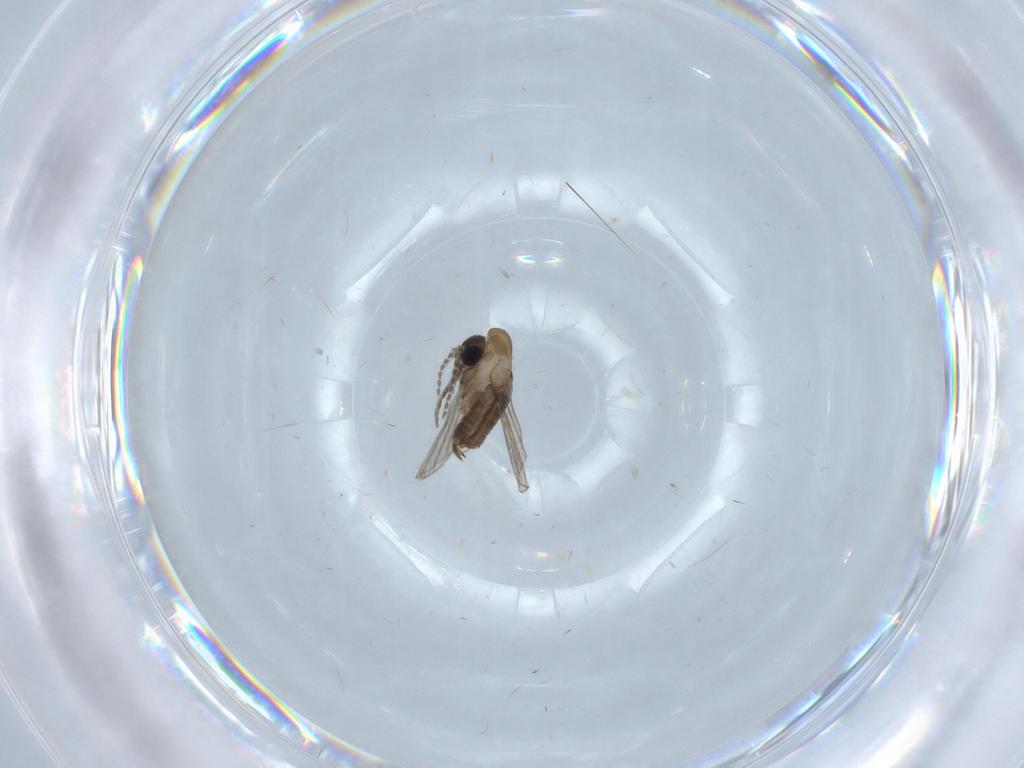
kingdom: Animalia
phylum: Arthropoda
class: Insecta
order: Diptera
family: Psychodidae
